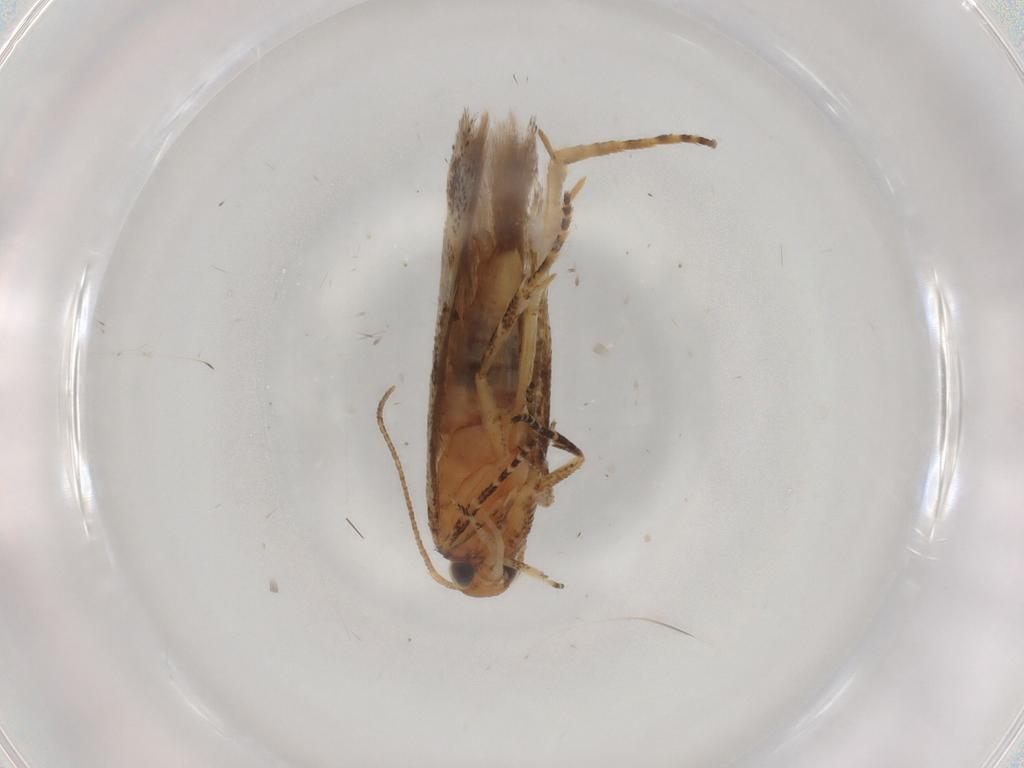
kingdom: Animalia
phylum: Arthropoda
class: Insecta
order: Lepidoptera
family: Gelechiidae
